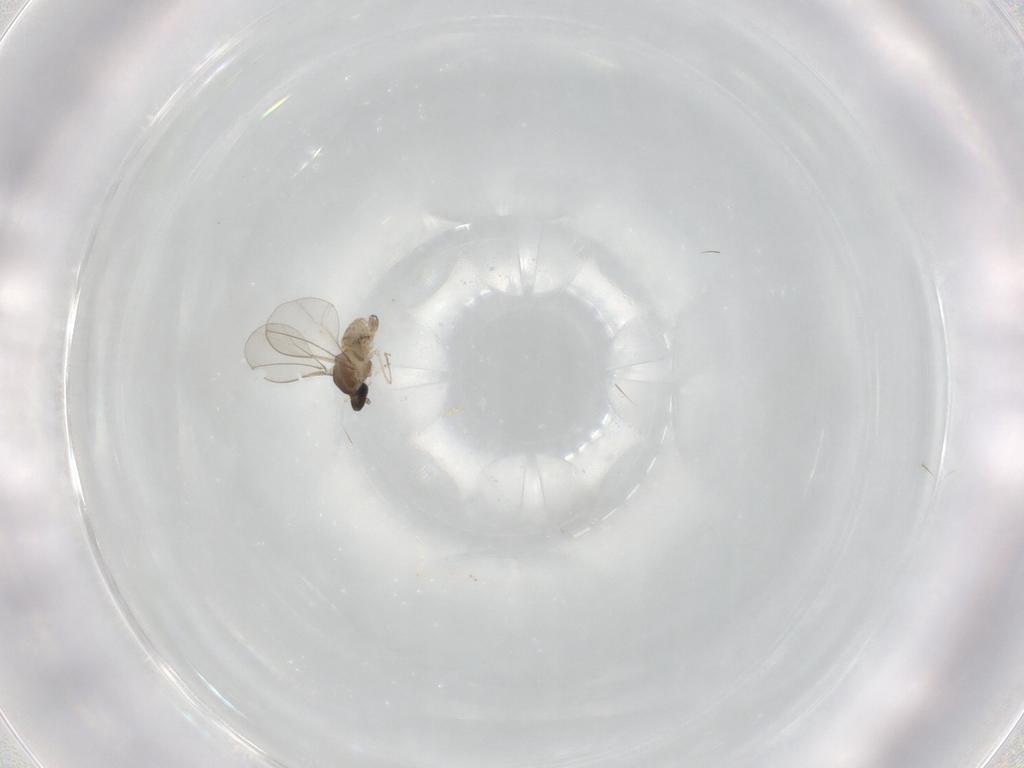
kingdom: Animalia
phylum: Arthropoda
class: Insecta
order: Diptera
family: Cecidomyiidae
